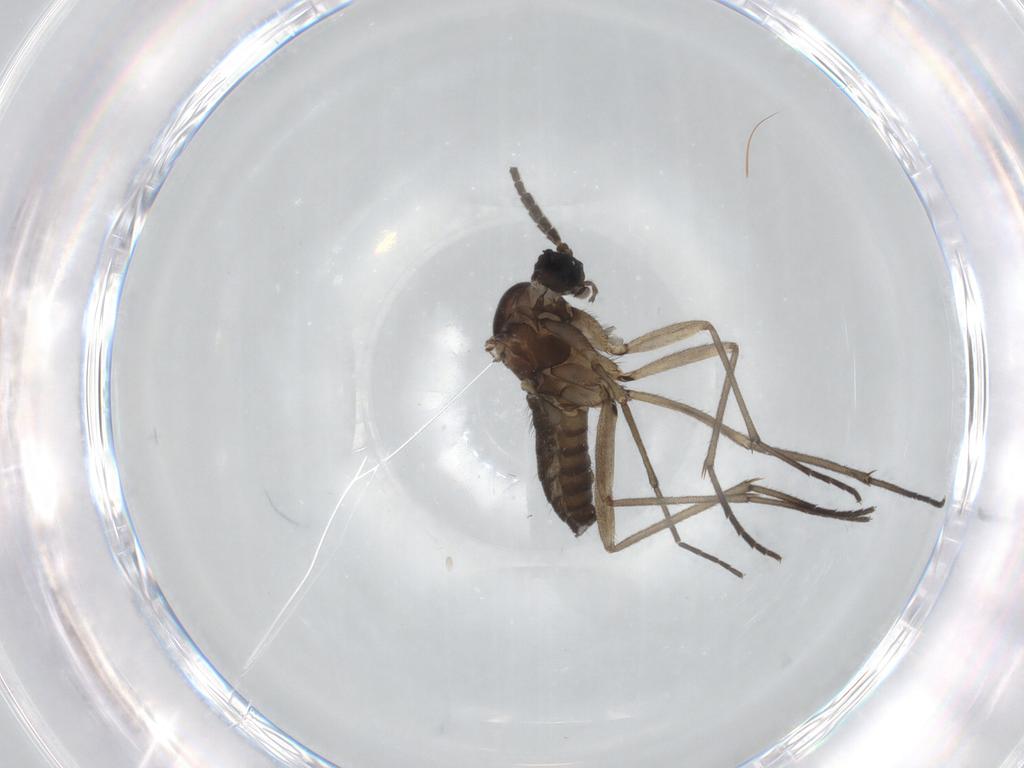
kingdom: Animalia
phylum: Arthropoda
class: Insecta
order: Diptera
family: Sciaridae
